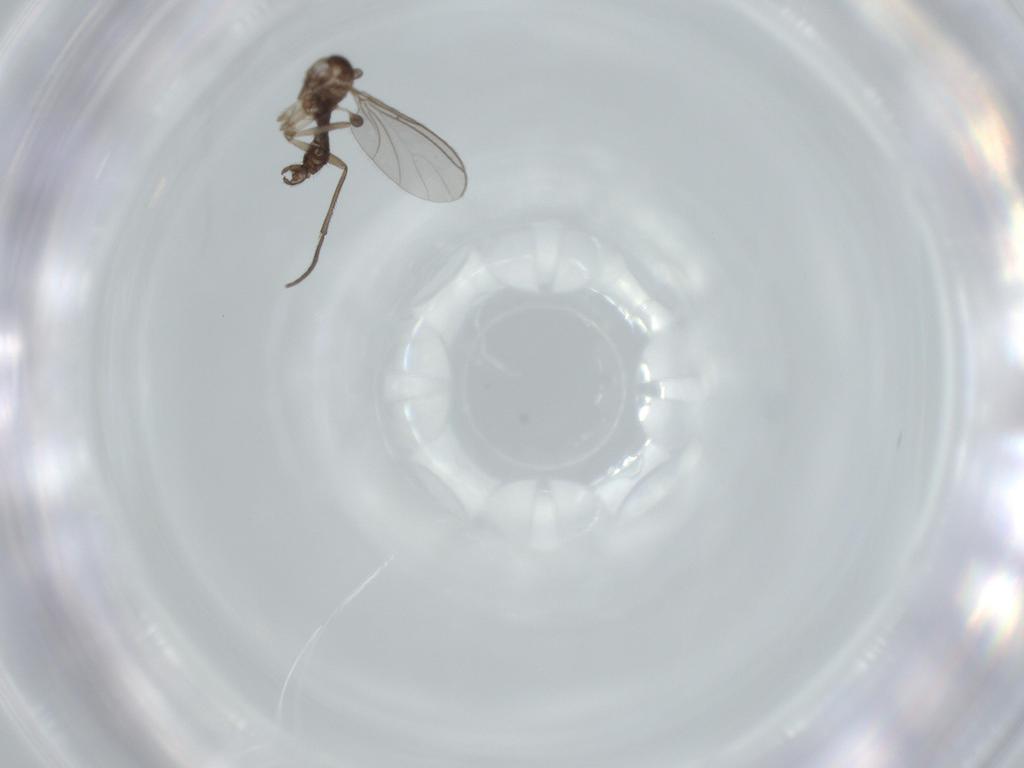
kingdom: Animalia
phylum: Arthropoda
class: Insecta
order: Diptera
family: Sciaridae
